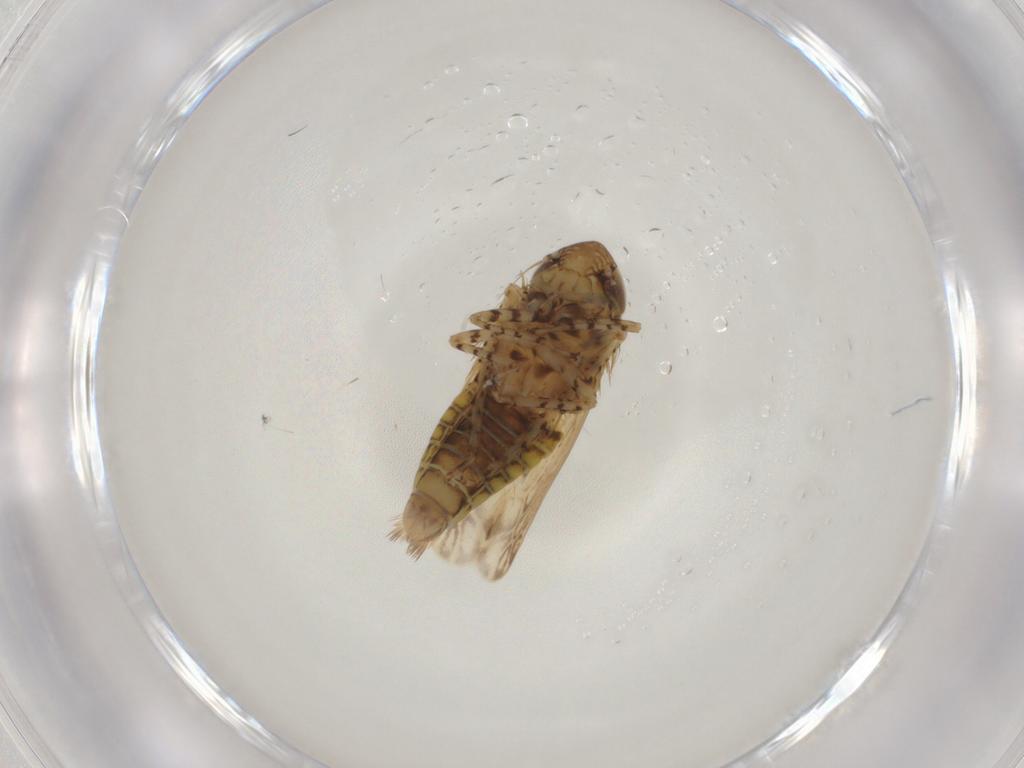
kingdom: Animalia
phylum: Arthropoda
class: Insecta
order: Hemiptera
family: Cicadellidae
